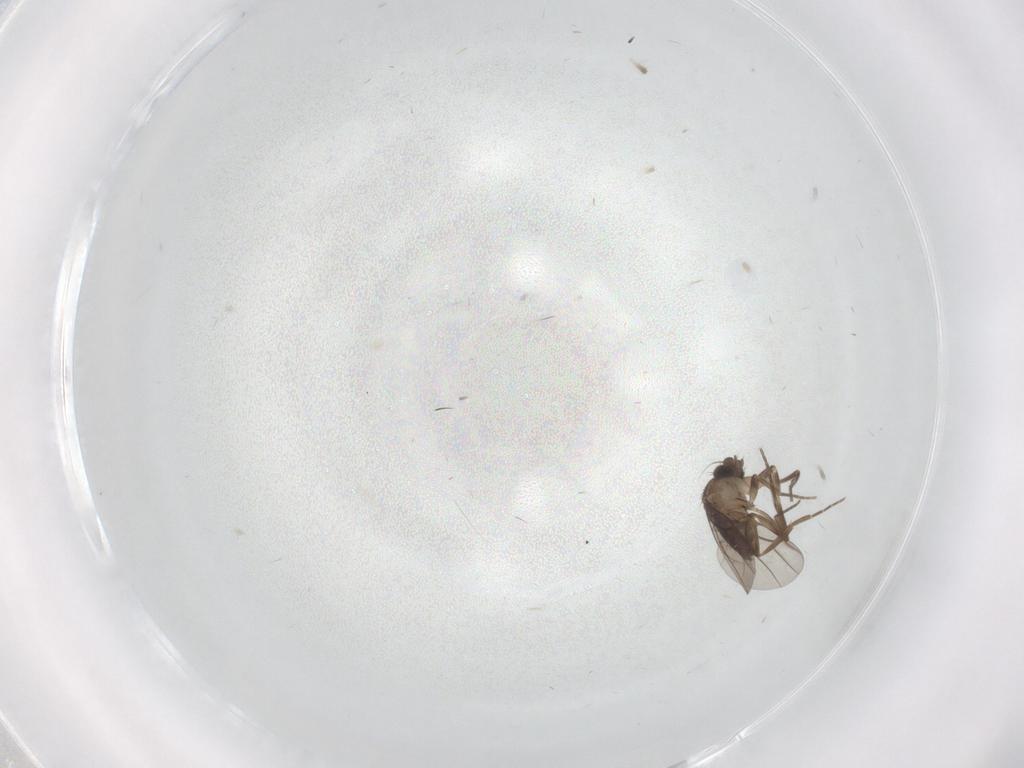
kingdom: Animalia
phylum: Arthropoda
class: Insecta
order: Diptera
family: Phoridae
